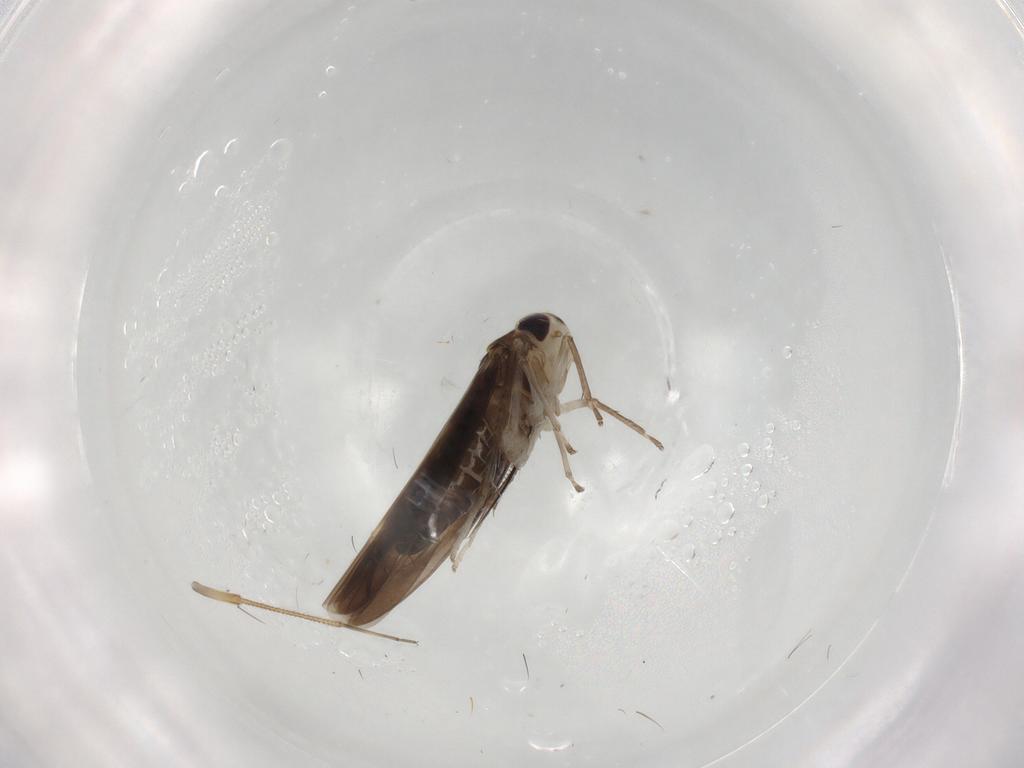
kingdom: Animalia
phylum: Arthropoda
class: Insecta
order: Hemiptera
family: Cicadellidae
